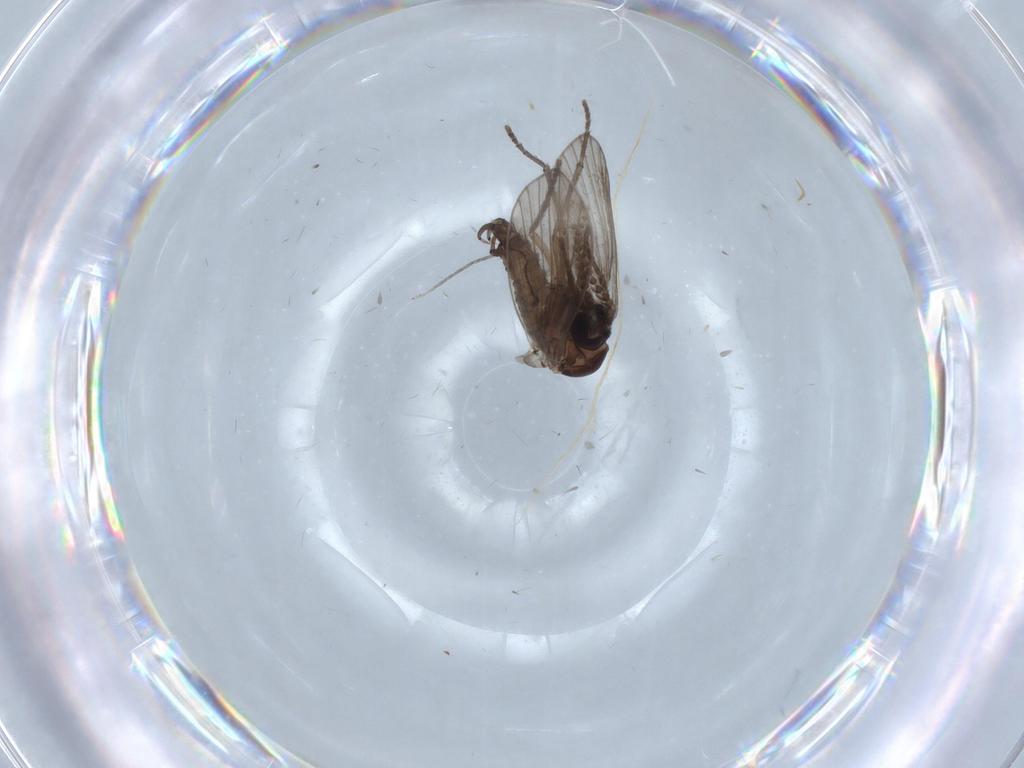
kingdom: Animalia
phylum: Arthropoda
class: Insecta
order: Diptera
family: Psychodidae
